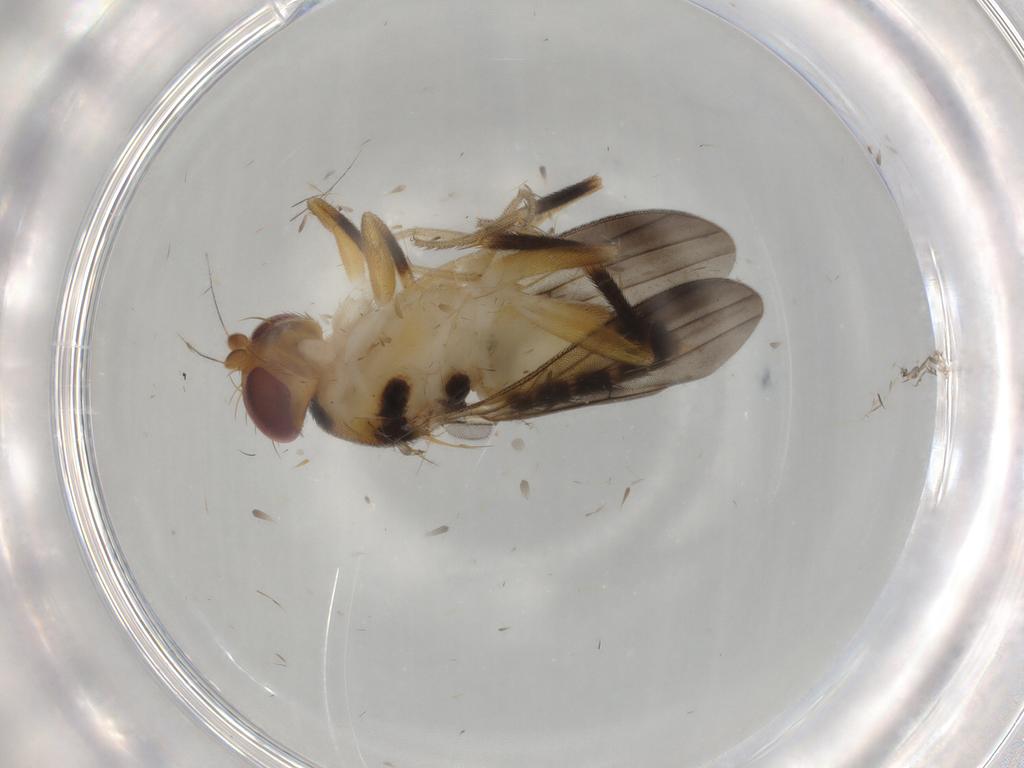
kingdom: Animalia
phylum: Arthropoda
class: Insecta
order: Diptera
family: Clusiidae
